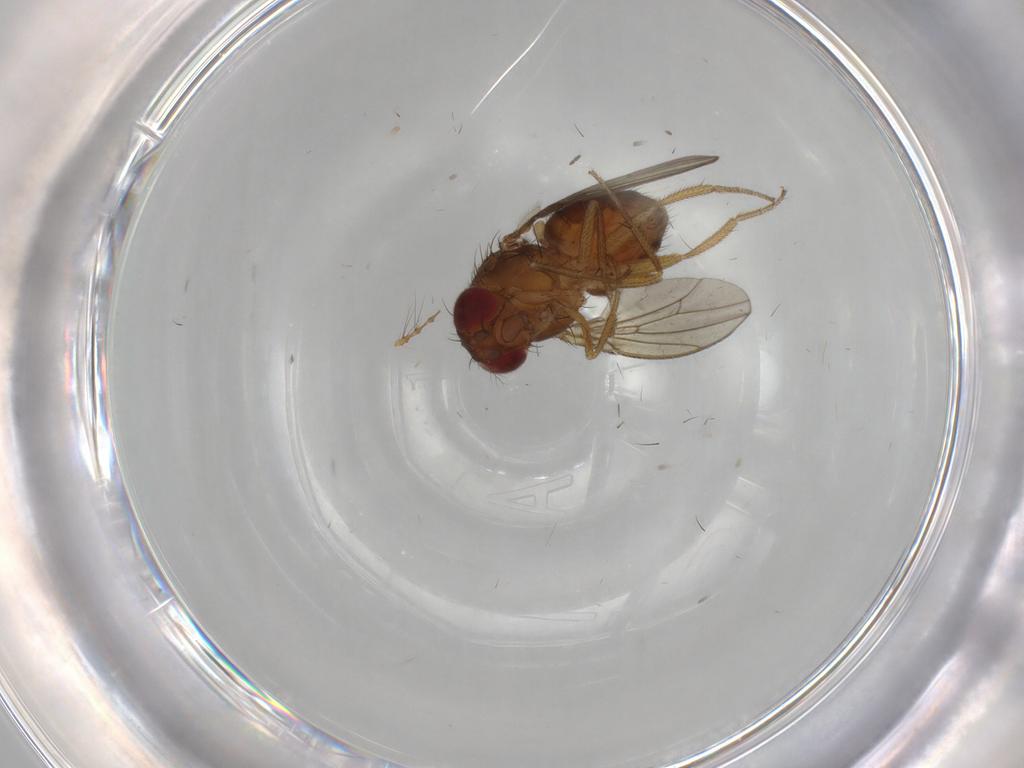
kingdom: Animalia
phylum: Arthropoda
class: Insecta
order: Diptera
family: Drosophilidae
